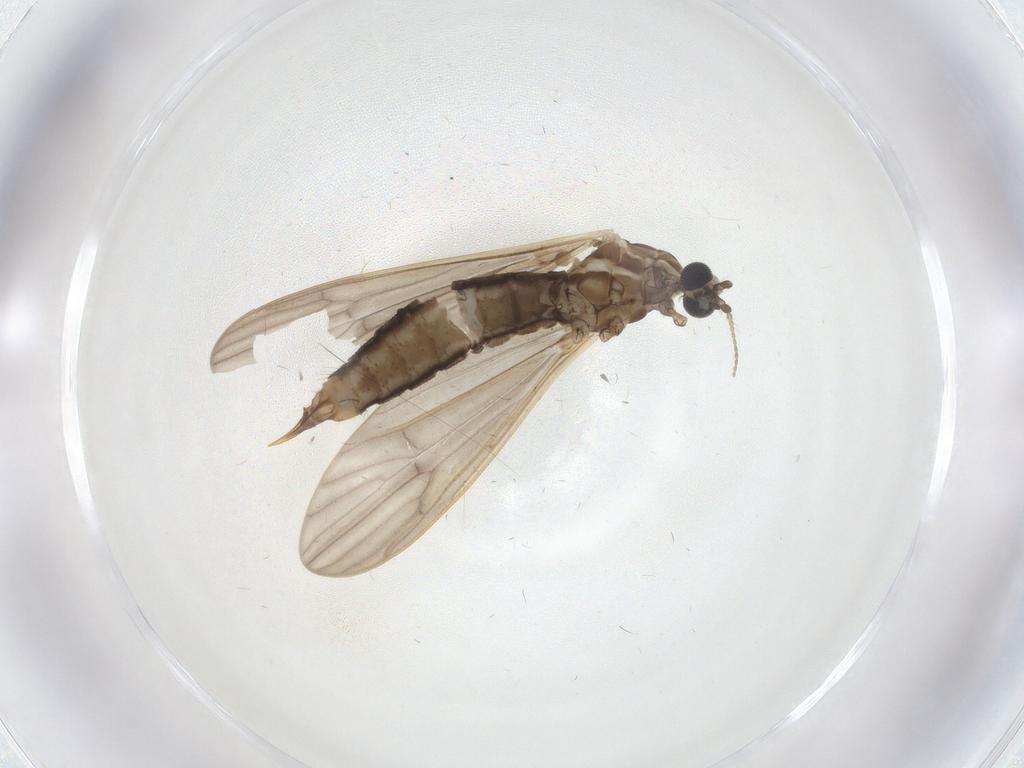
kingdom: Animalia
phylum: Arthropoda
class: Insecta
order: Diptera
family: Limoniidae
